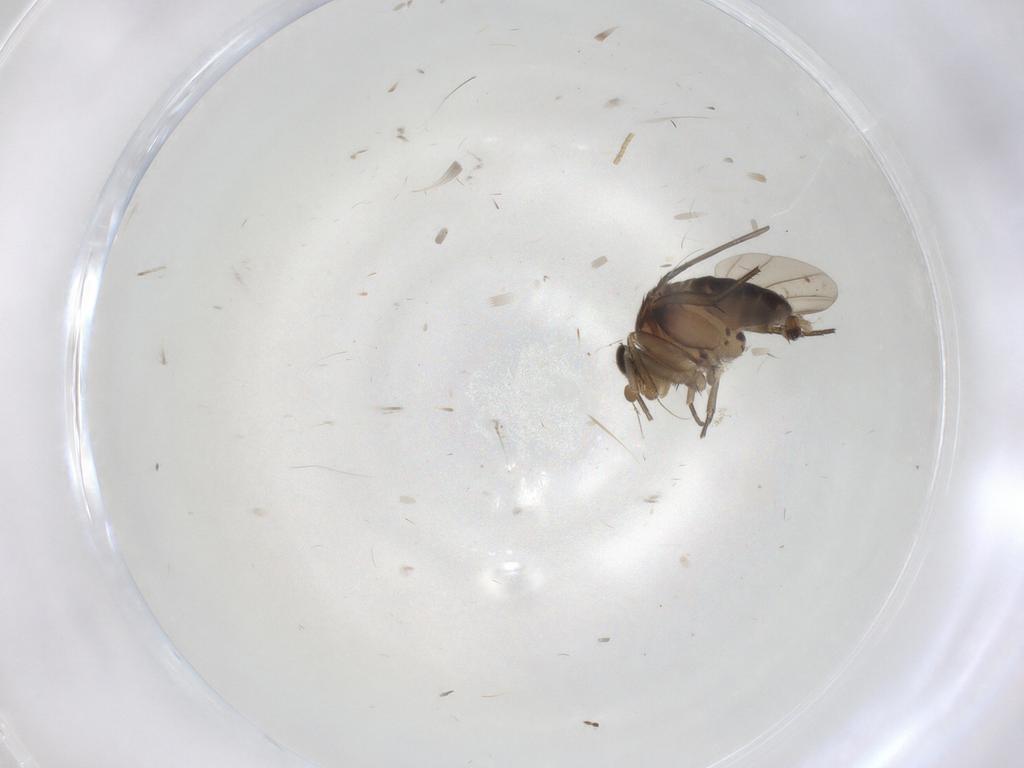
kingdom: Animalia
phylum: Arthropoda
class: Insecta
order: Diptera
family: Phoridae
